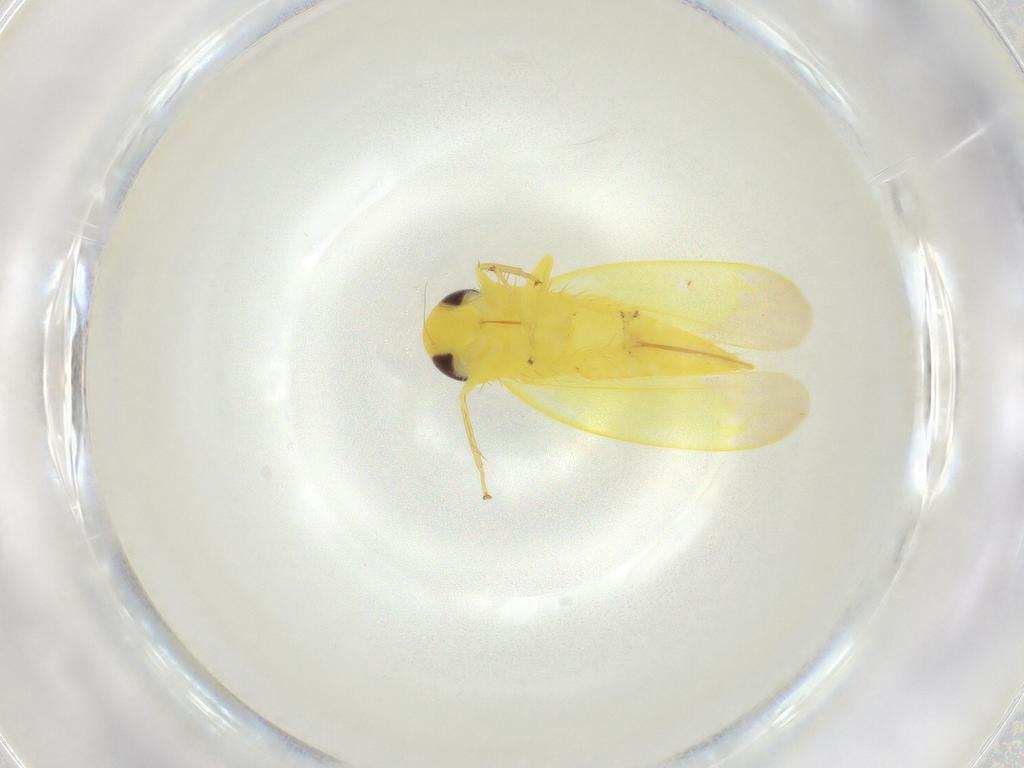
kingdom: Animalia
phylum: Arthropoda
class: Insecta
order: Hemiptera
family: Cicadellidae
